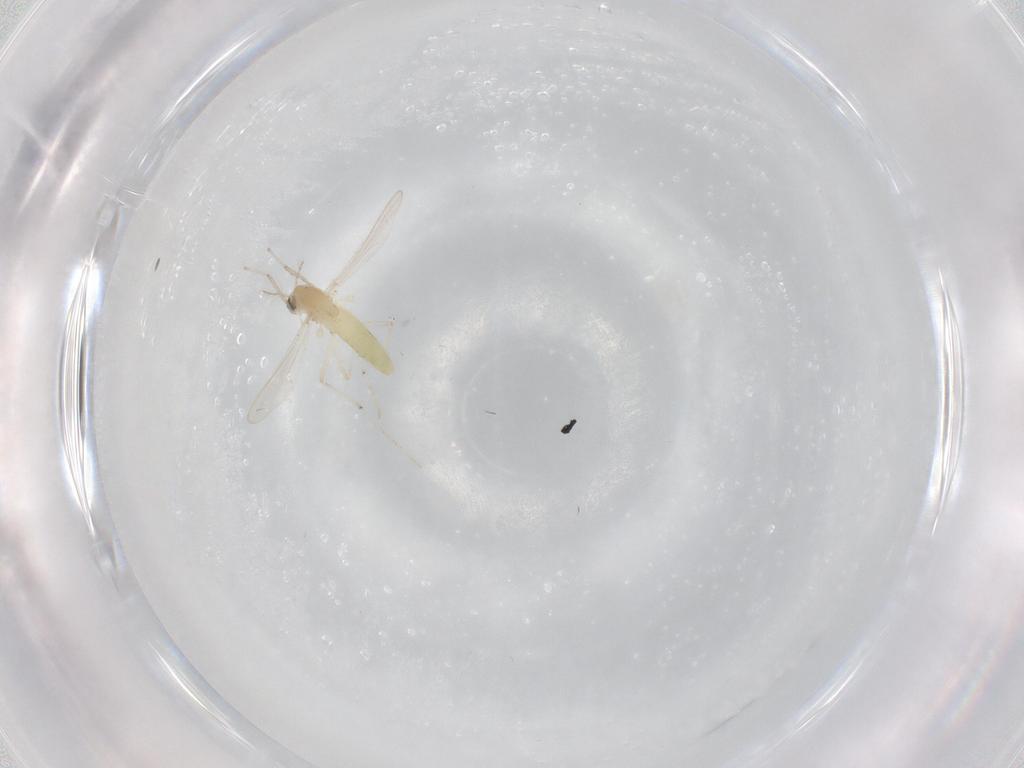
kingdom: Animalia
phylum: Arthropoda
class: Insecta
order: Diptera
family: Chironomidae
